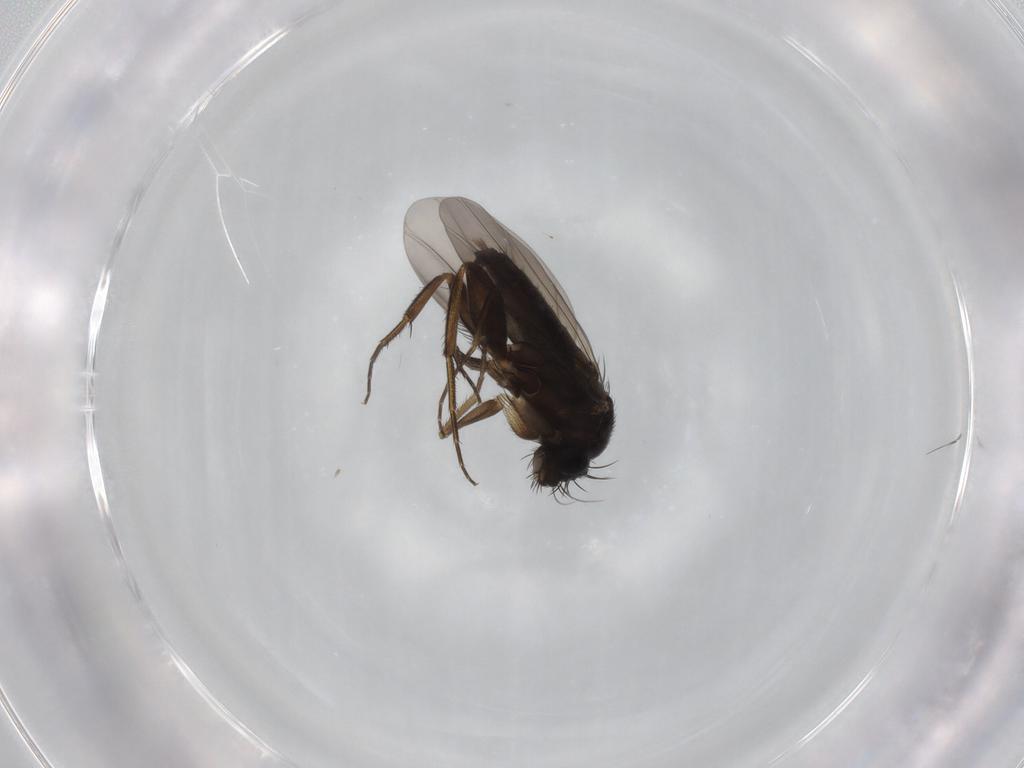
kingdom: Animalia
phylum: Arthropoda
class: Insecta
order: Diptera
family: Phoridae
